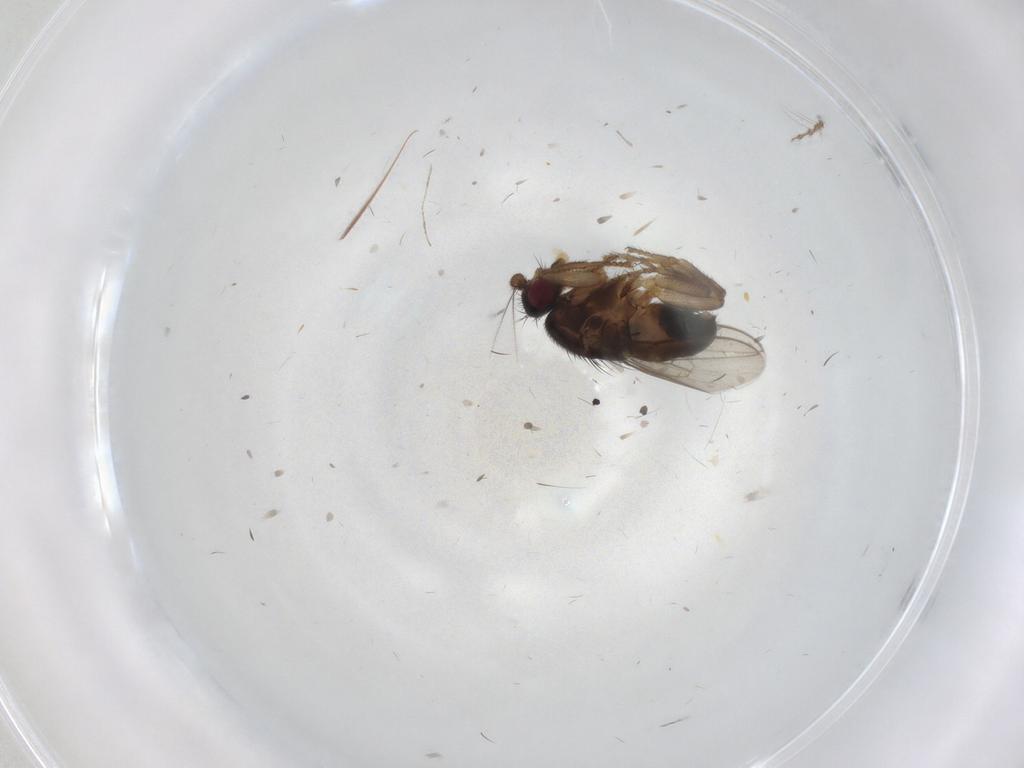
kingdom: Animalia
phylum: Arthropoda
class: Insecta
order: Diptera
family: Sphaeroceridae
